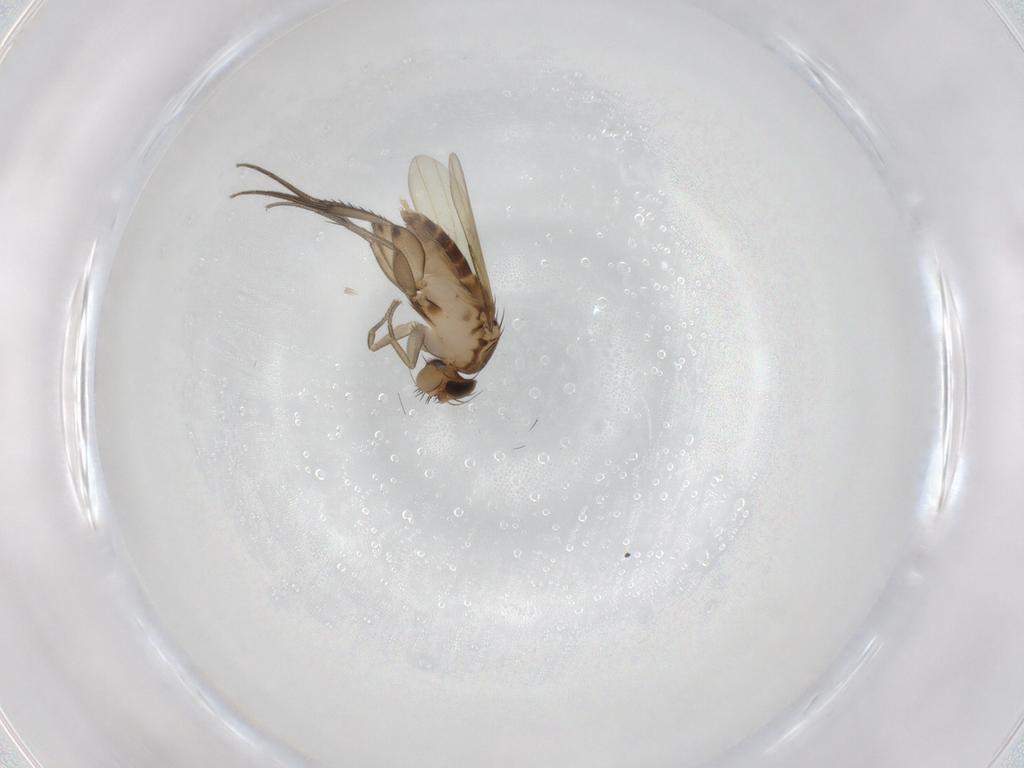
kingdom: Animalia
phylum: Arthropoda
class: Insecta
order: Diptera
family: Phoridae
